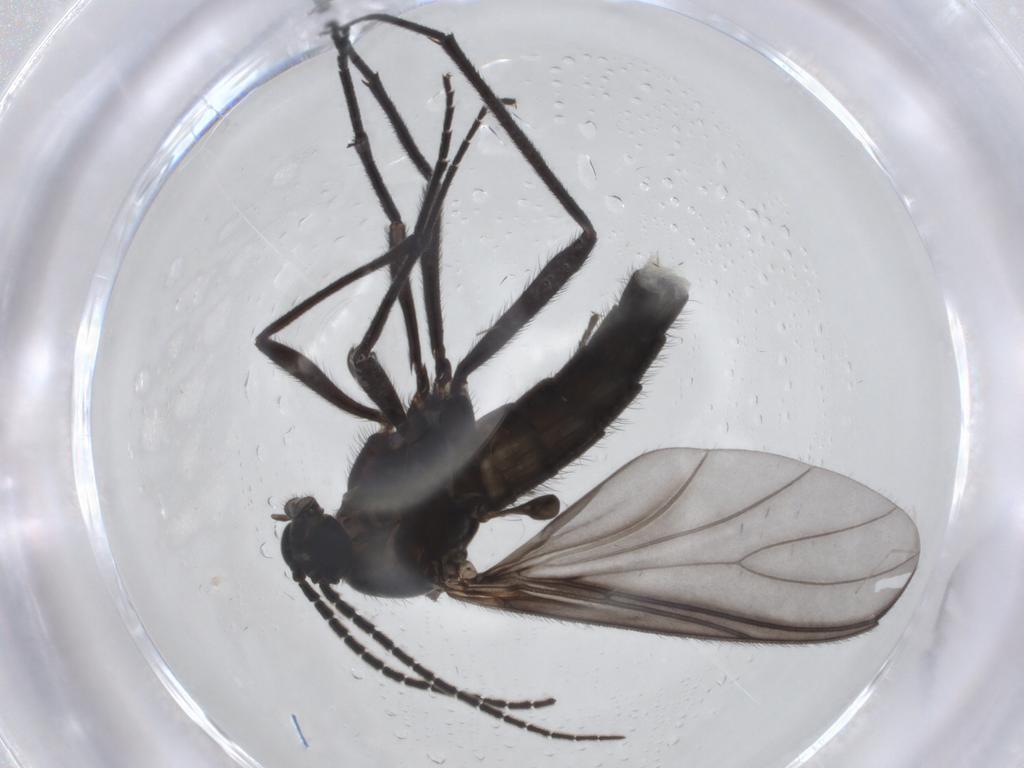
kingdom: Animalia
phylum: Arthropoda
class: Insecta
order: Diptera
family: Cecidomyiidae
